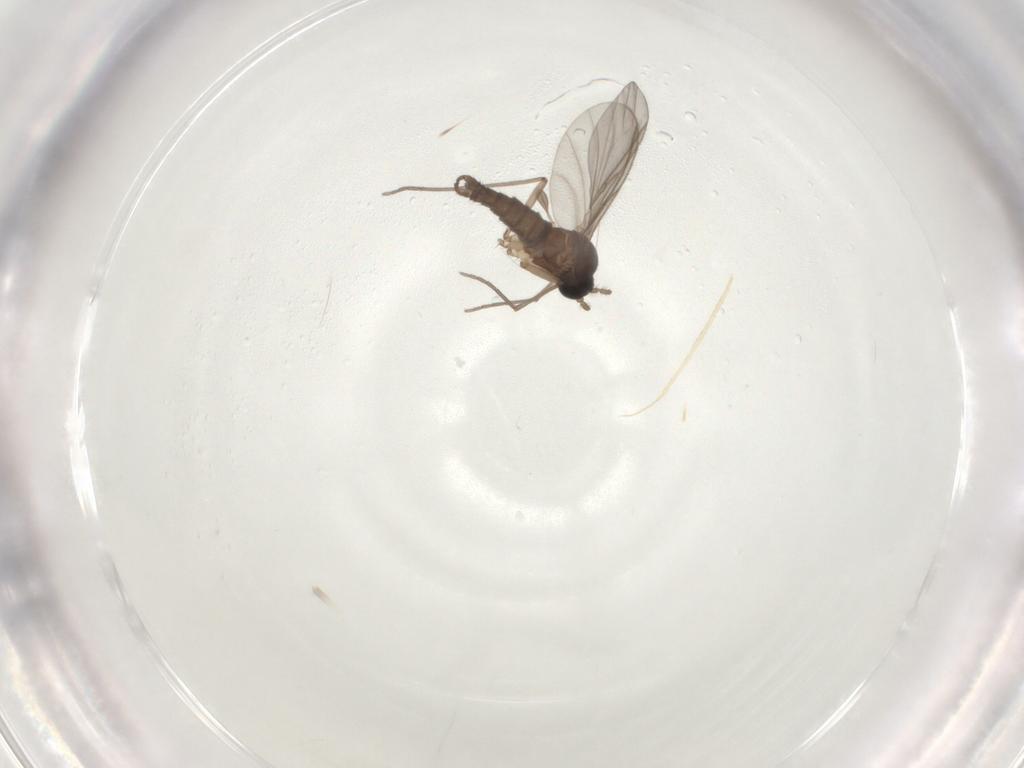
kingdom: Animalia
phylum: Arthropoda
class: Insecta
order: Diptera
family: Sciaridae
